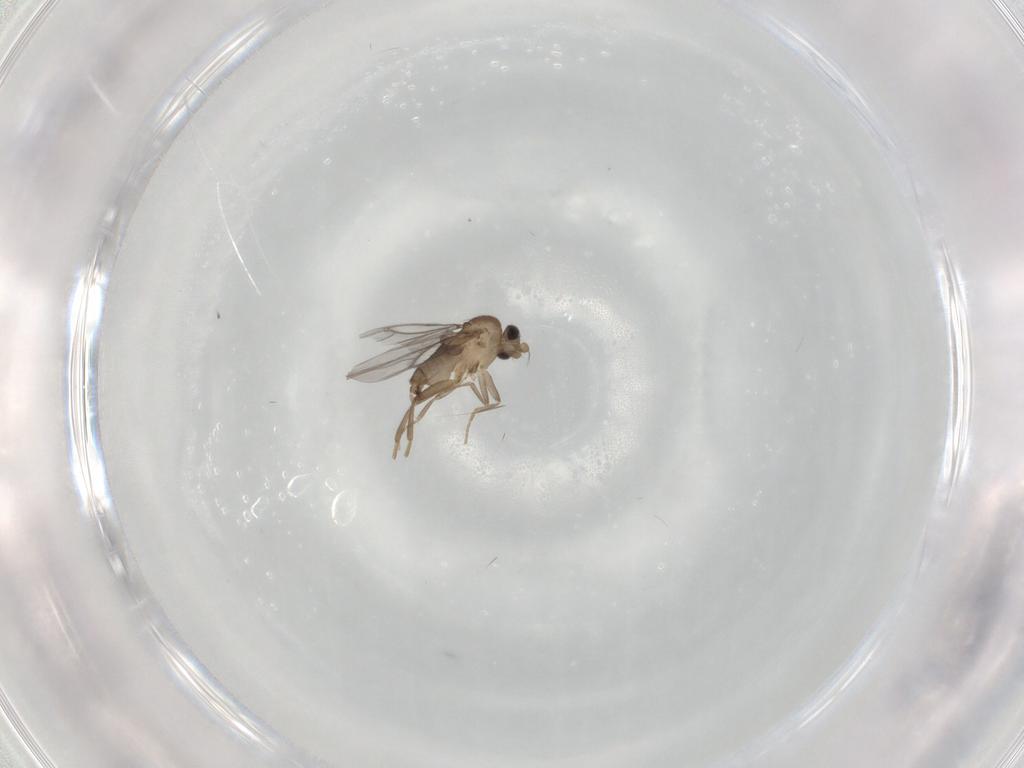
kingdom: Animalia
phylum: Arthropoda
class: Insecta
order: Diptera
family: Cecidomyiidae
